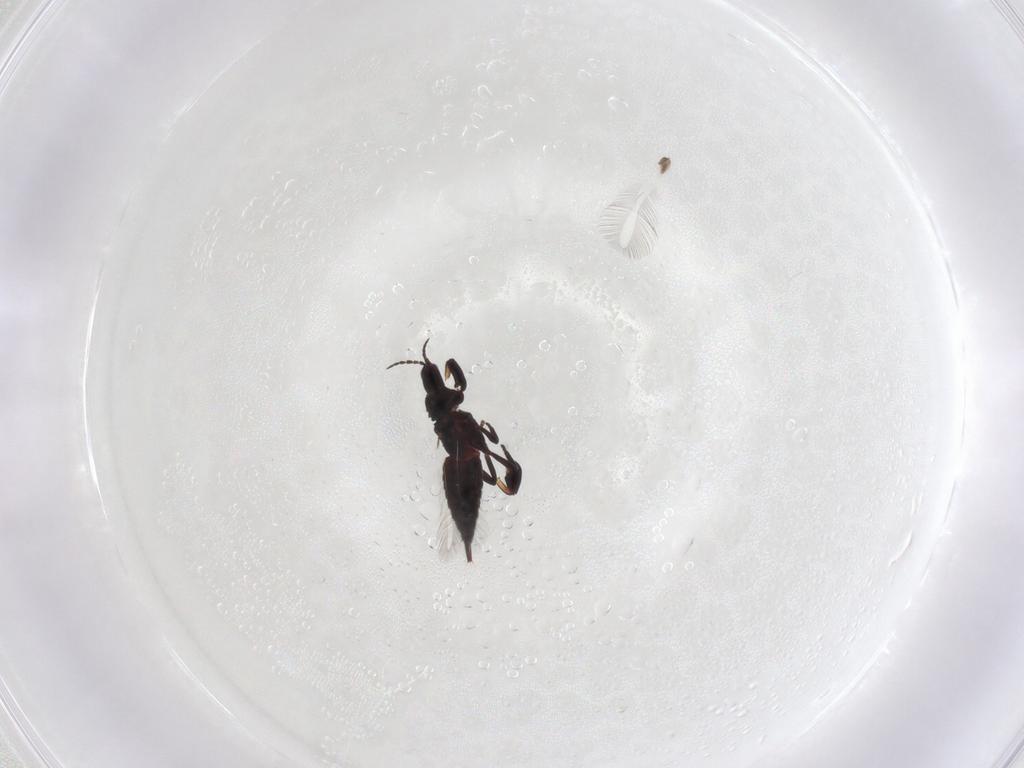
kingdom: Animalia
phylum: Arthropoda
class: Insecta
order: Thysanoptera
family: Phlaeothripidae
